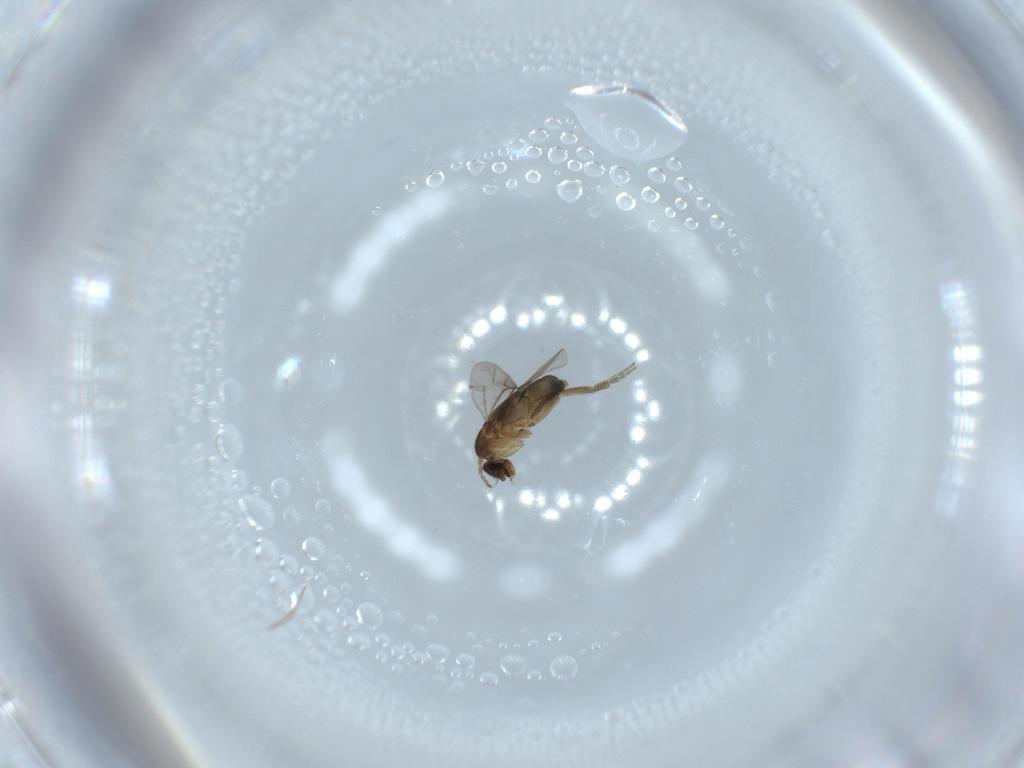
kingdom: Animalia
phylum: Arthropoda
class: Insecta
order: Diptera
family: Phoridae
